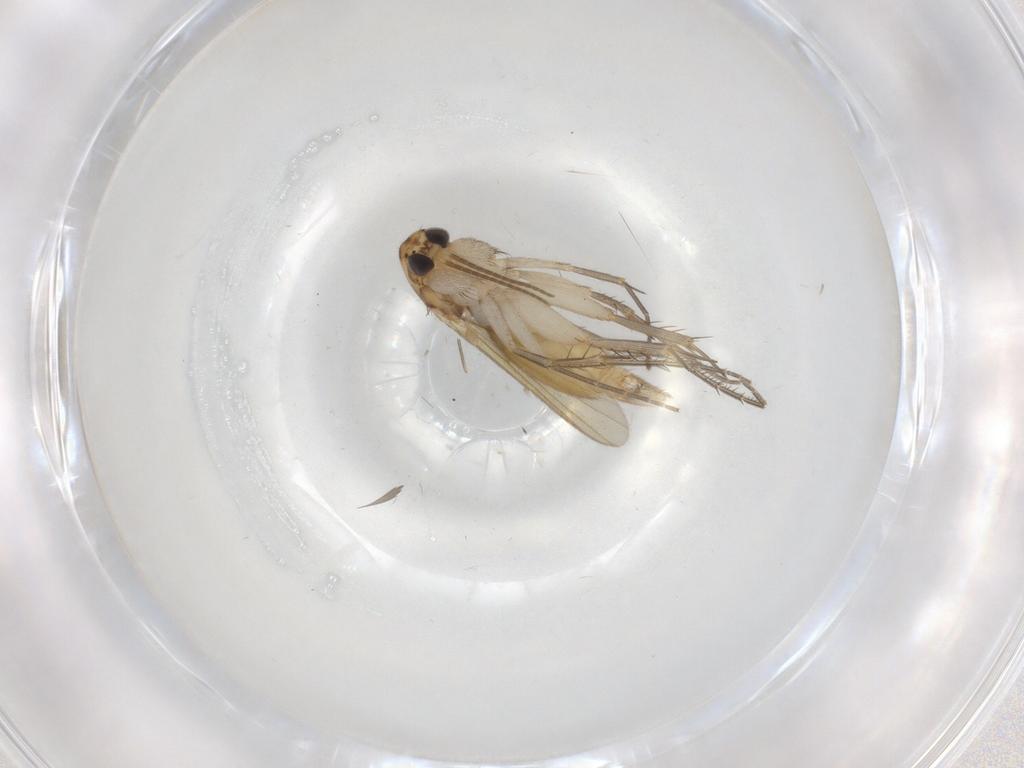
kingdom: Animalia
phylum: Arthropoda
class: Insecta
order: Diptera
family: Mycetophilidae
